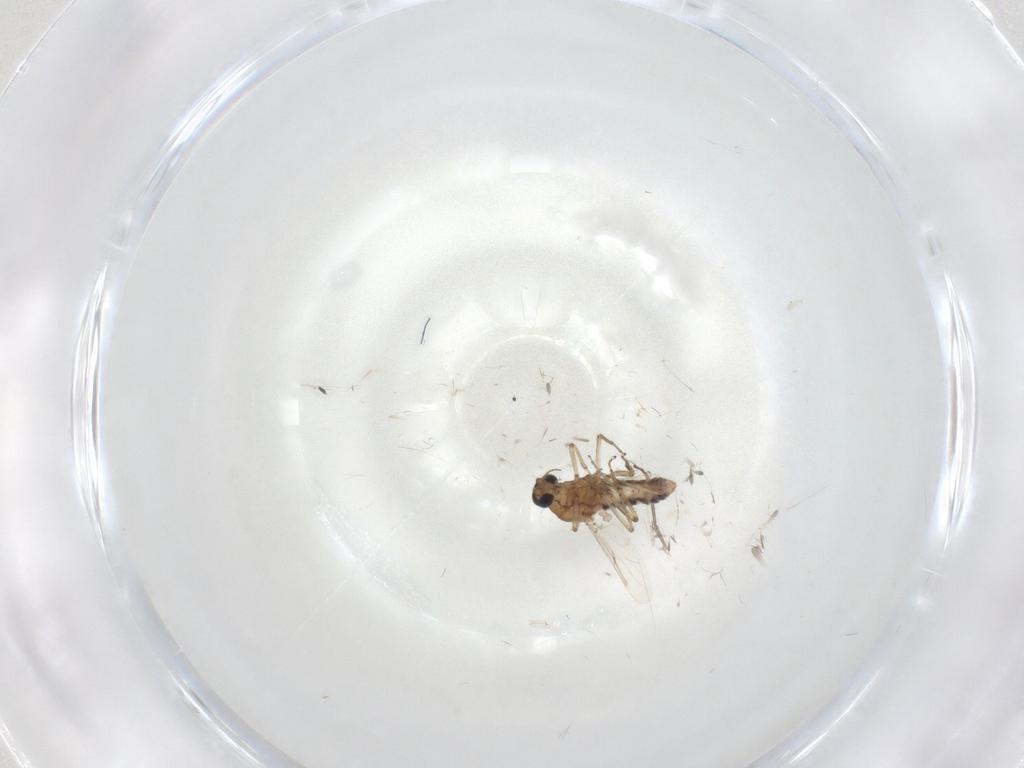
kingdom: Animalia
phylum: Arthropoda
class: Insecta
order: Diptera
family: Ceratopogonidae
